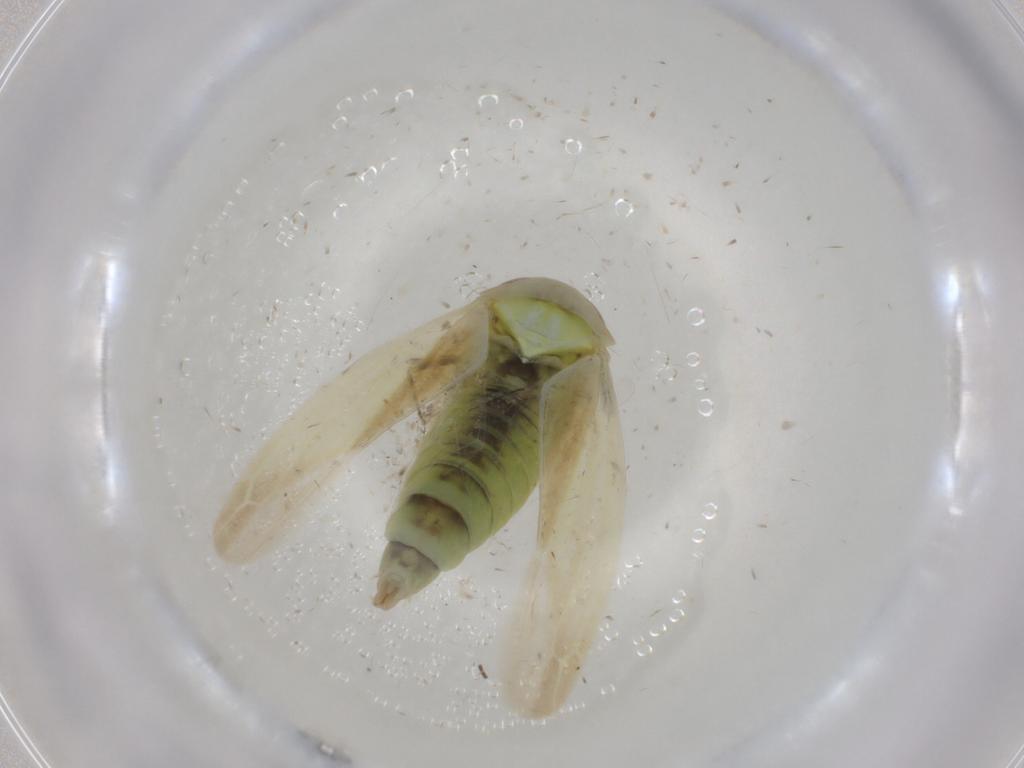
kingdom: Animalia
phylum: Arthropoda
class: Insecta
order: Hemiptera
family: Cicadellidae
